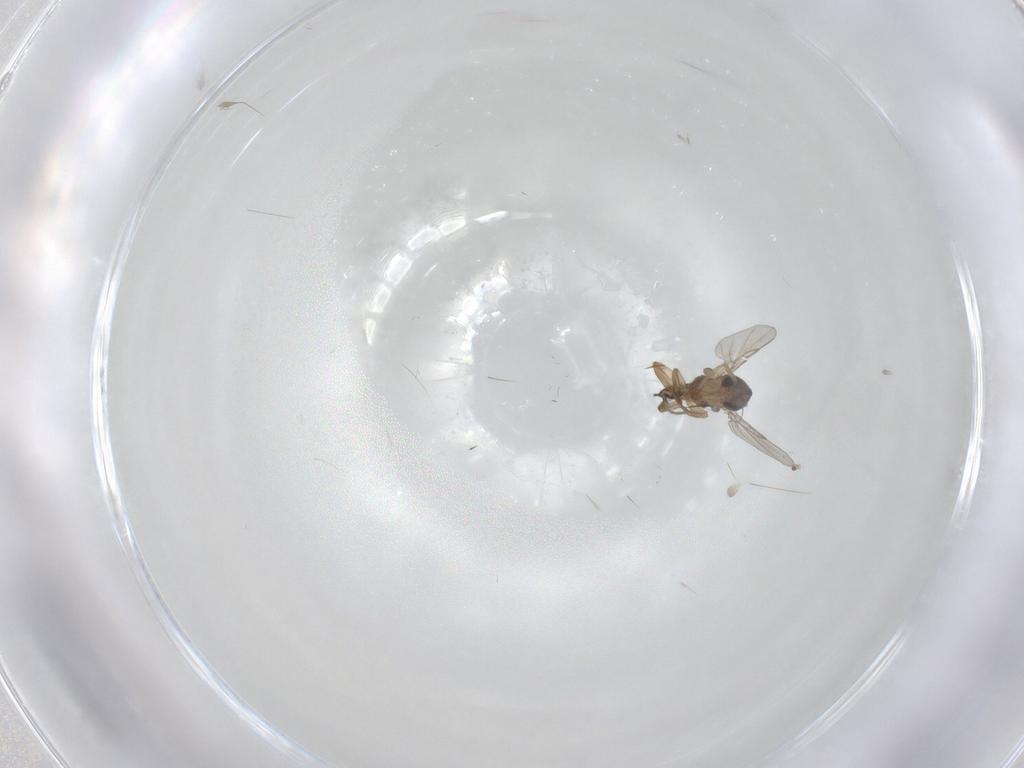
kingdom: Animalia
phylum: Arthropoda
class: Insecta
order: Diptera
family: Phoridae
